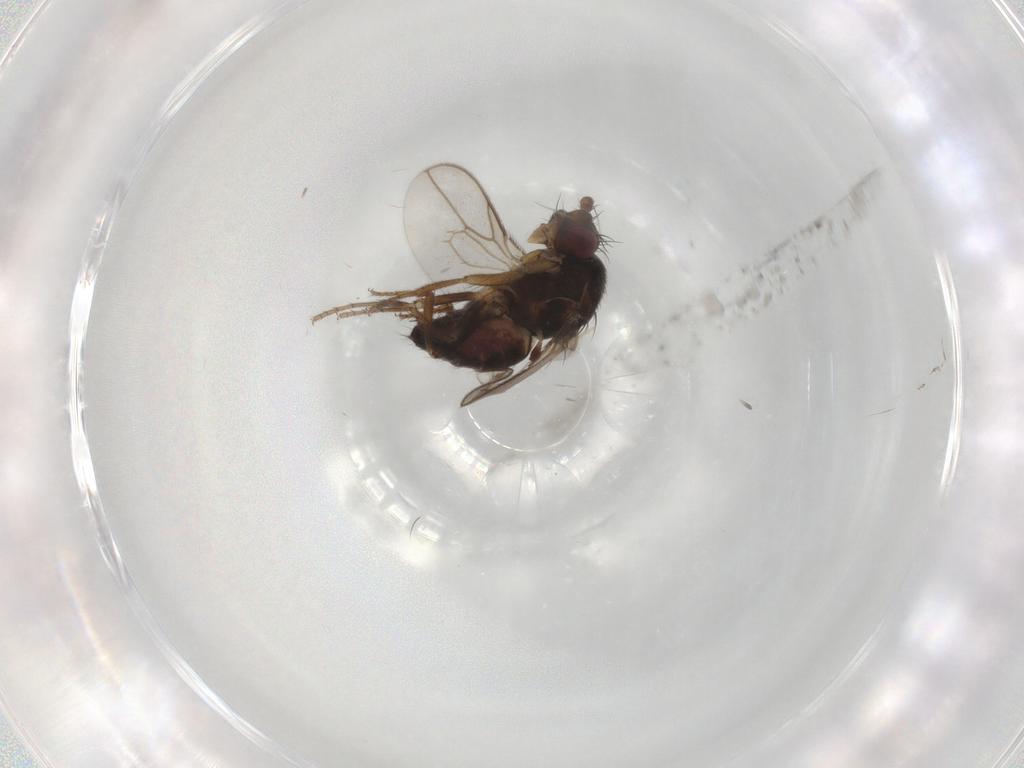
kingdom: Animalia
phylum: Arthropoda
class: Insecta
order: Diptera
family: Sphaeroceridae
